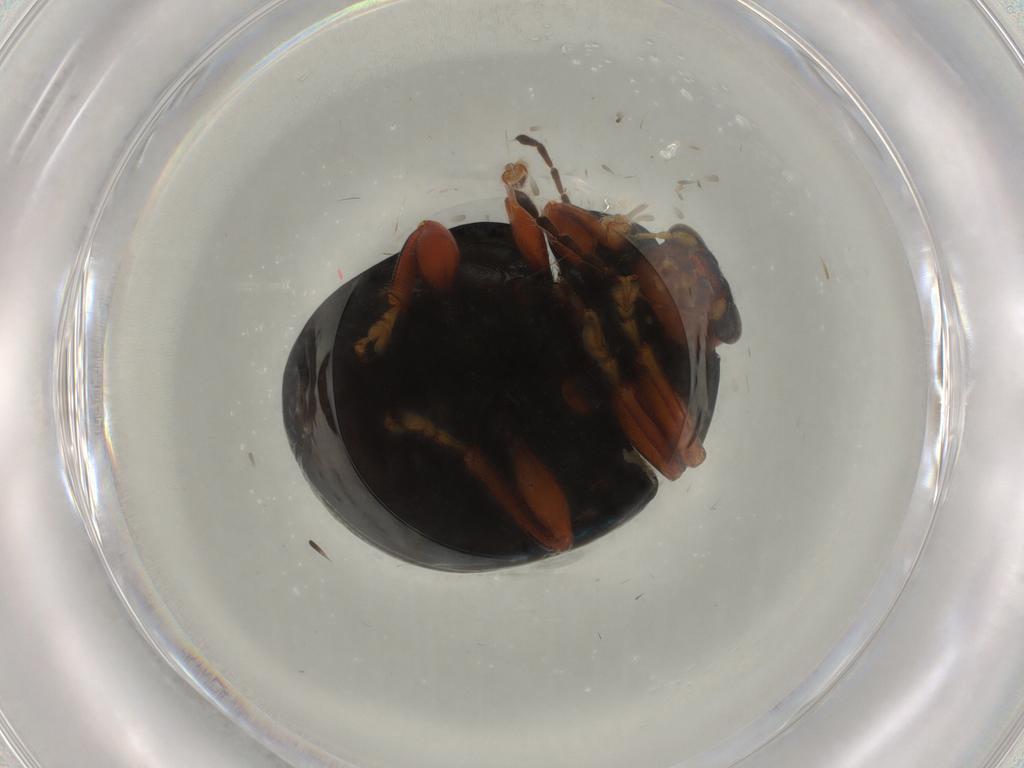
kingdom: Animalia
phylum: Arthropoda
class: Insecta
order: Coleoptera
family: Chrysomelidae
